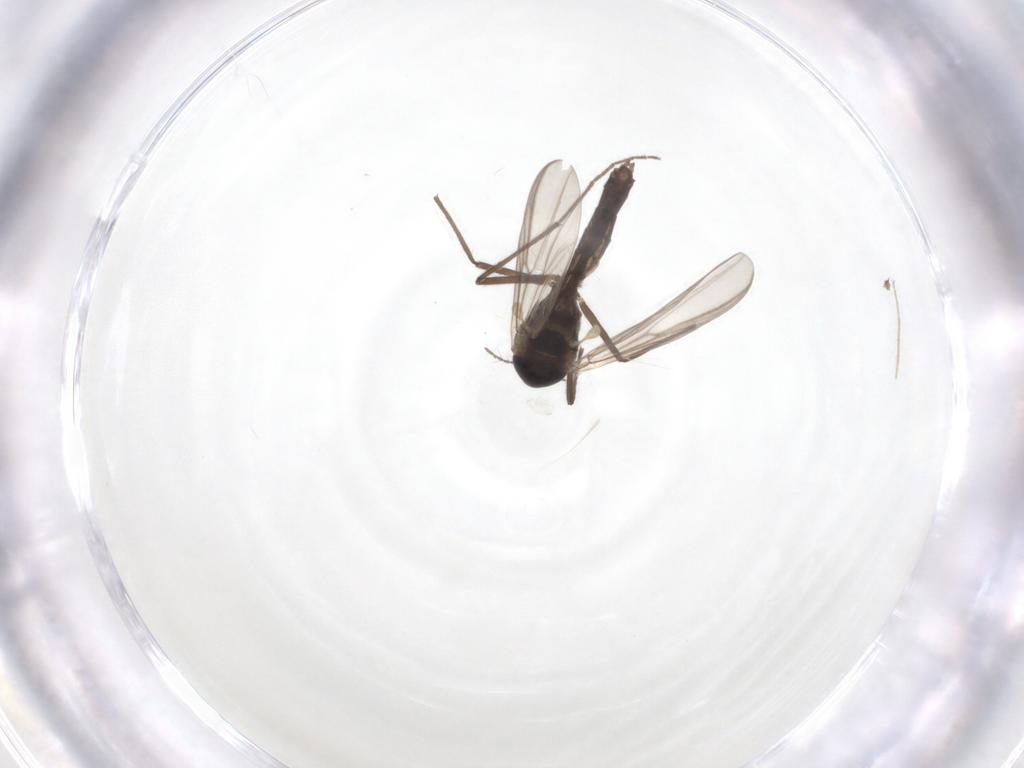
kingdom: Animalia
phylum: Arthropoda
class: Insecta
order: Diptera
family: Chironomidae
